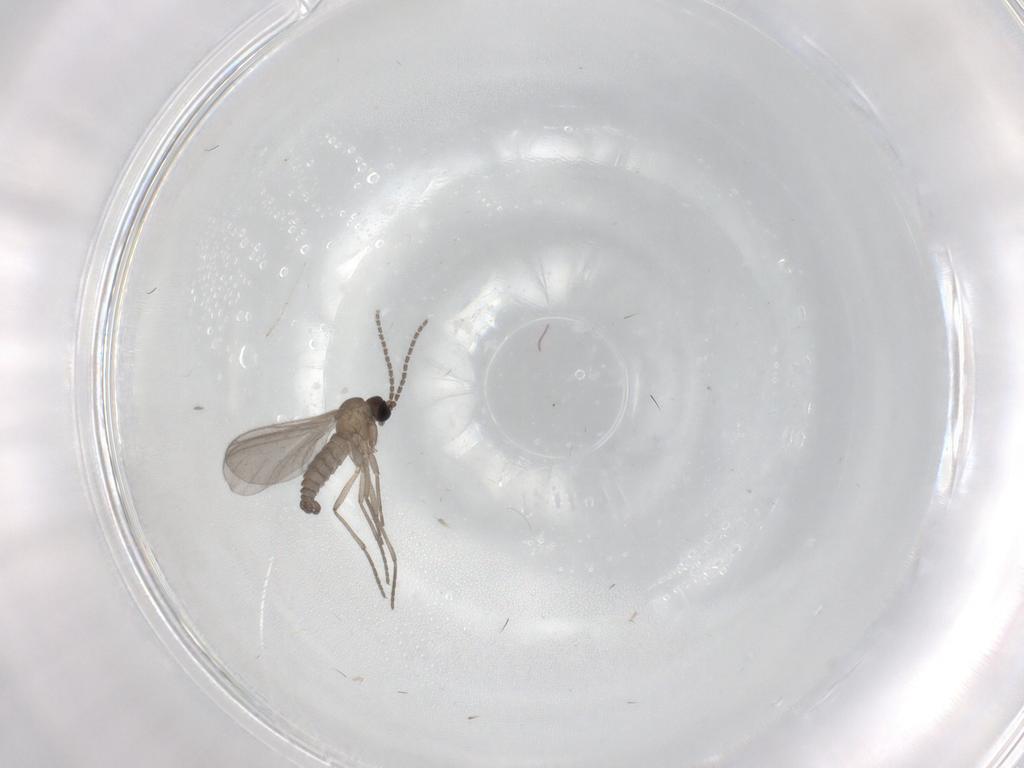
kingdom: Animalia
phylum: Arthropoda
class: Insecta
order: Diptera
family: Sciaridae
